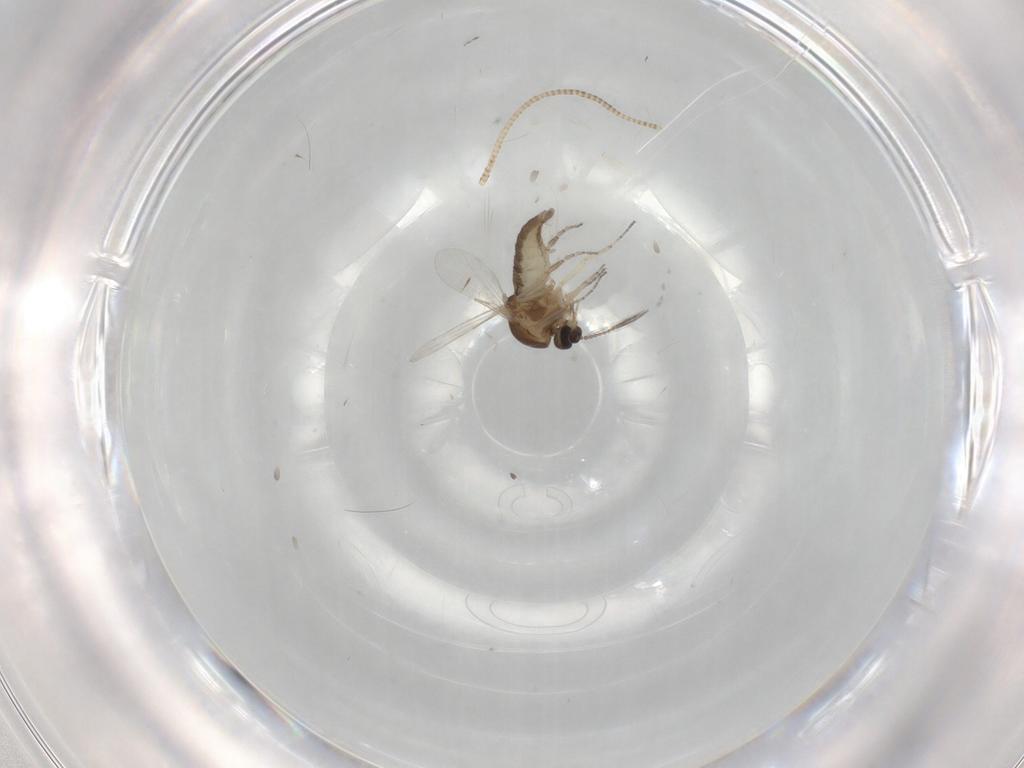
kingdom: Animalia
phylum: Arthropoda
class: Insecta
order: Diptera
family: Ceratopogonidae
